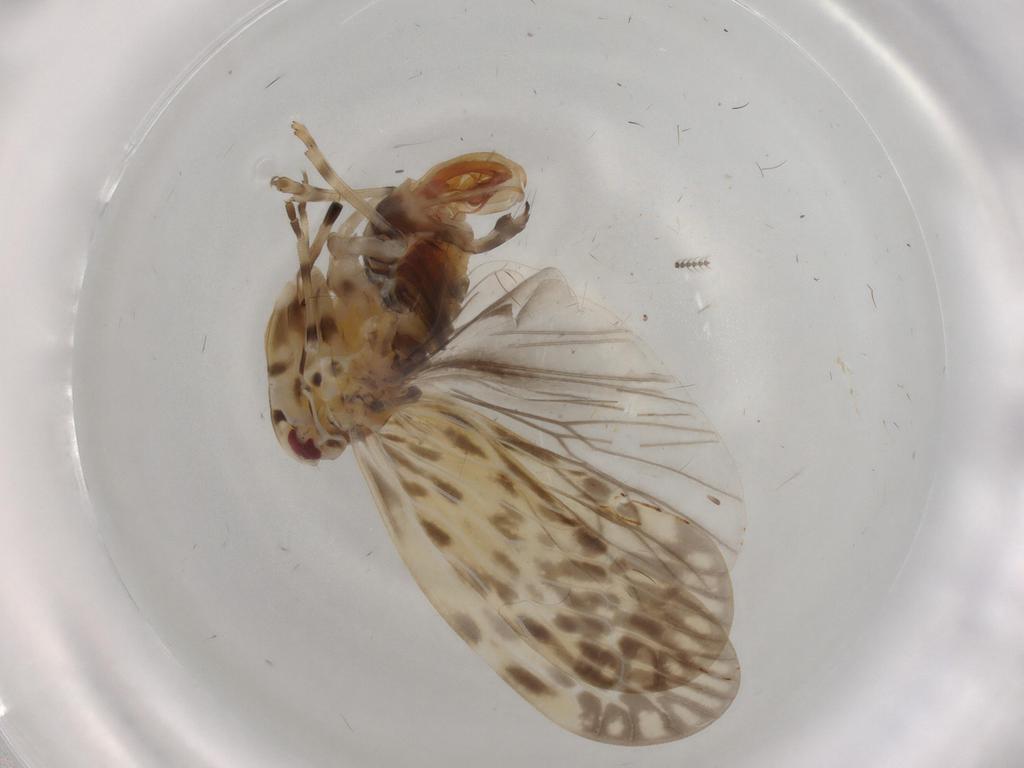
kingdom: Animalia
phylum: Arthropoda
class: Insecta
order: Hemiptera
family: Derbidae
